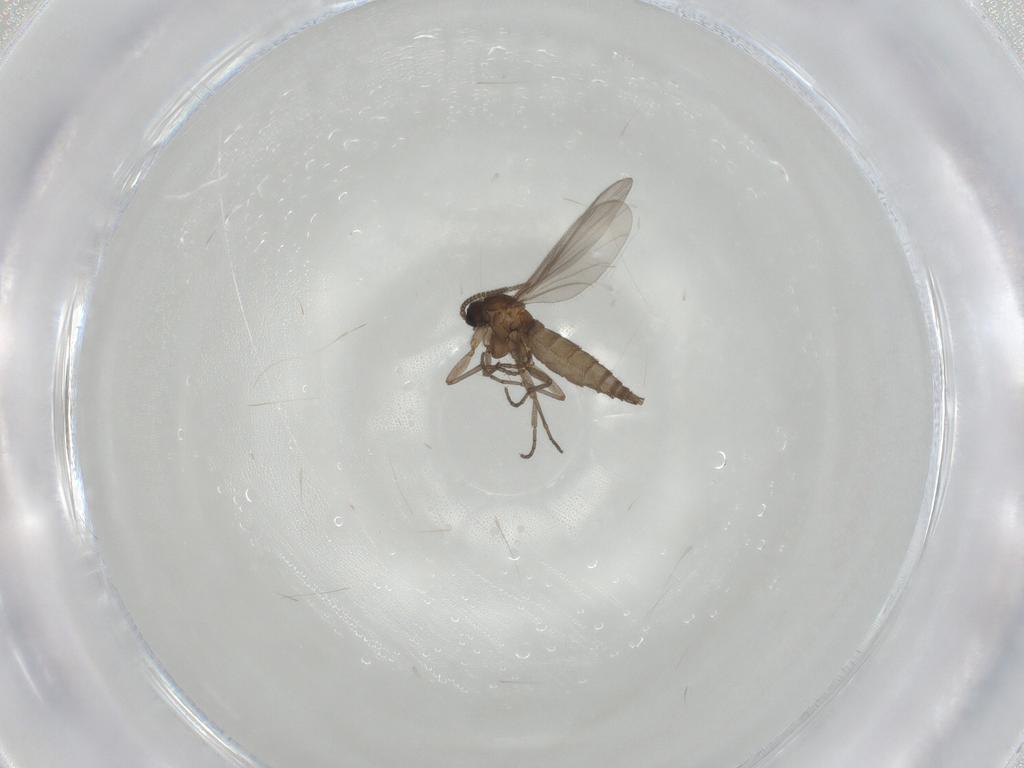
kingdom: Animalia
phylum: Arthropoda
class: Insecta
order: Diptera
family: Sciaridae
